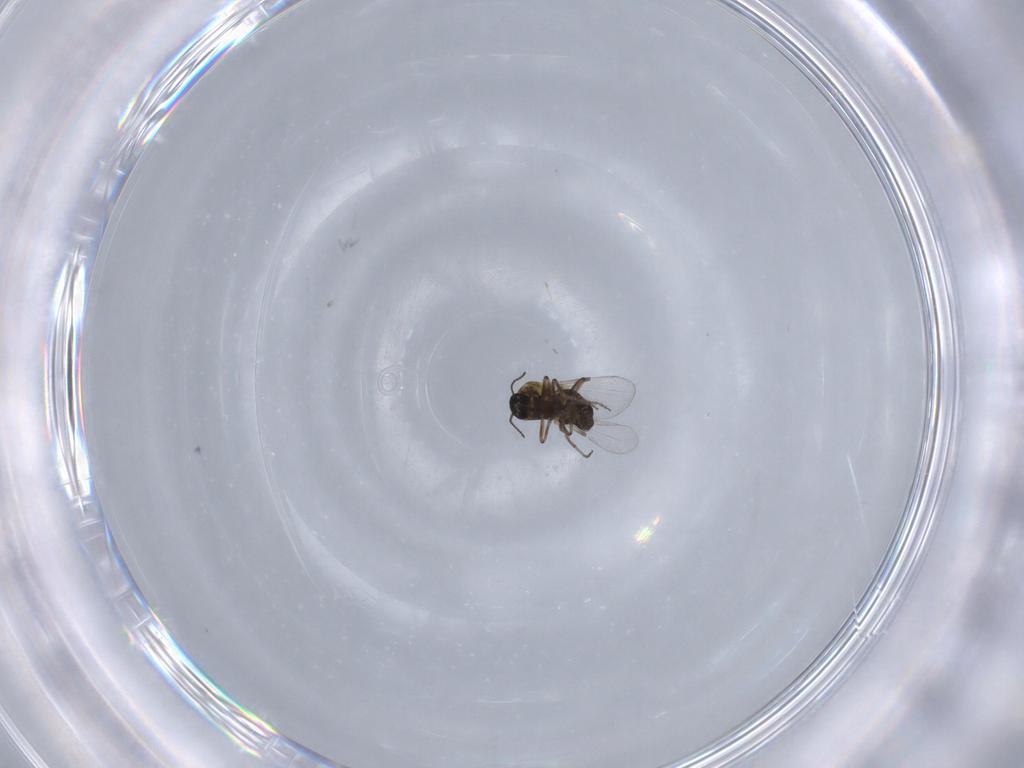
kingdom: Animalia
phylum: Arthropoda
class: Insecta
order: Diptera
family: Ceratopogonidae
